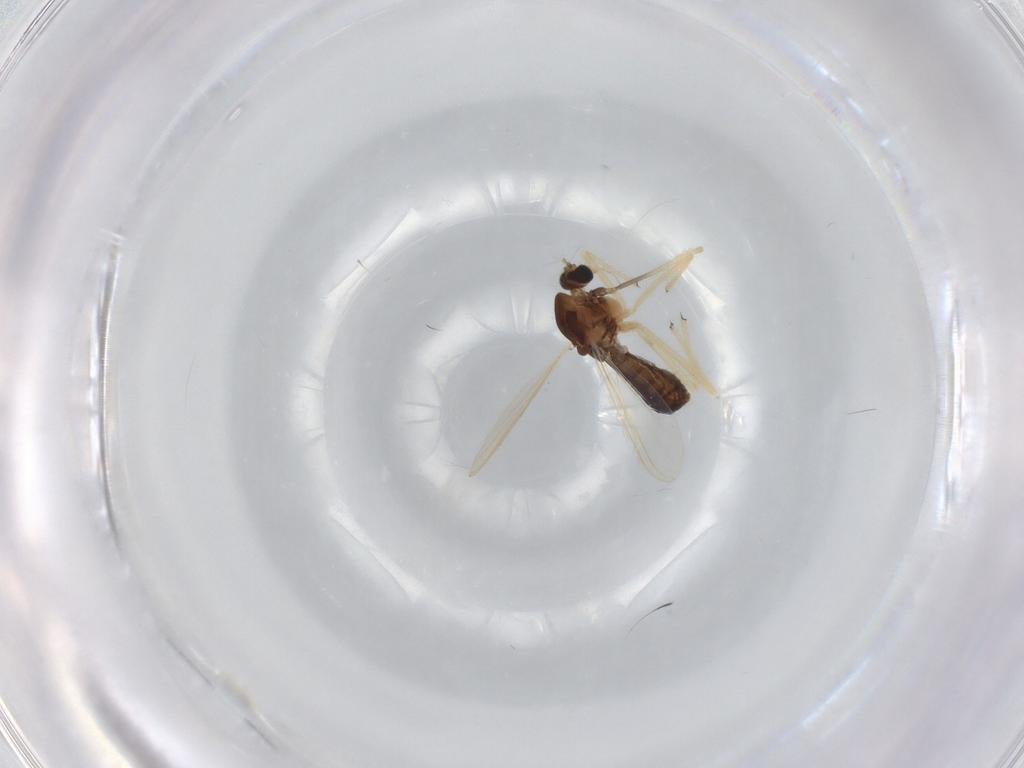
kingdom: Animalia
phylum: Arthropoda
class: Insecta
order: Diptera
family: Chironomidae
